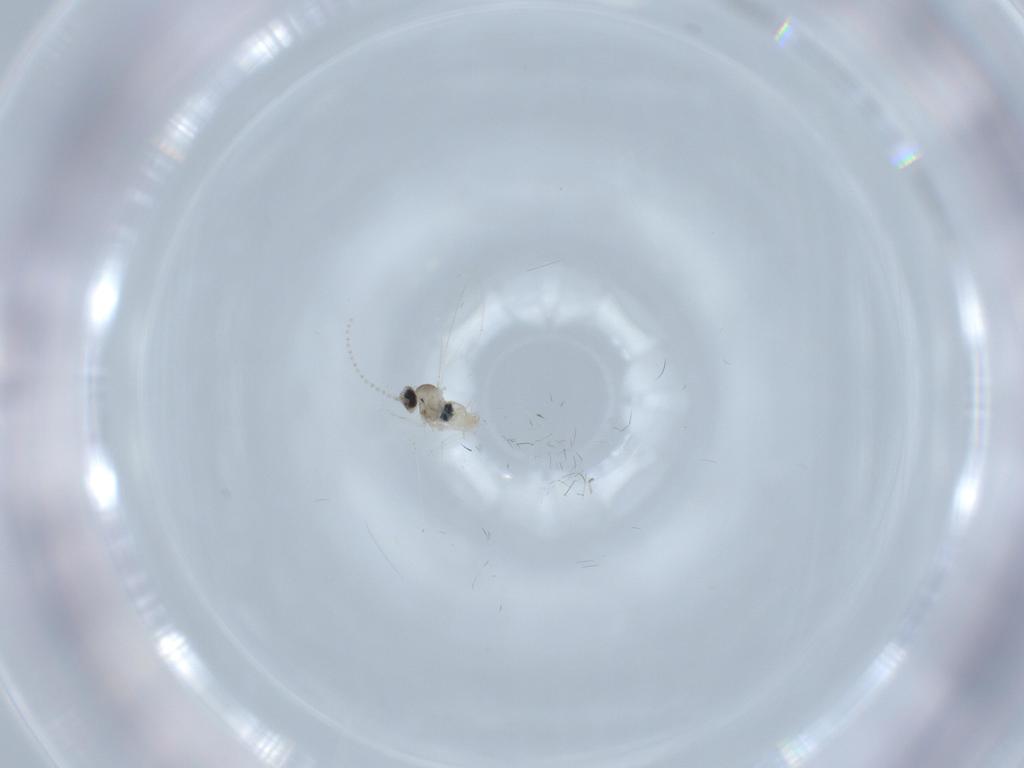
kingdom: Animalia
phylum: Arthropoda
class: Insecta
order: Diptera
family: Cecidomyiidae
